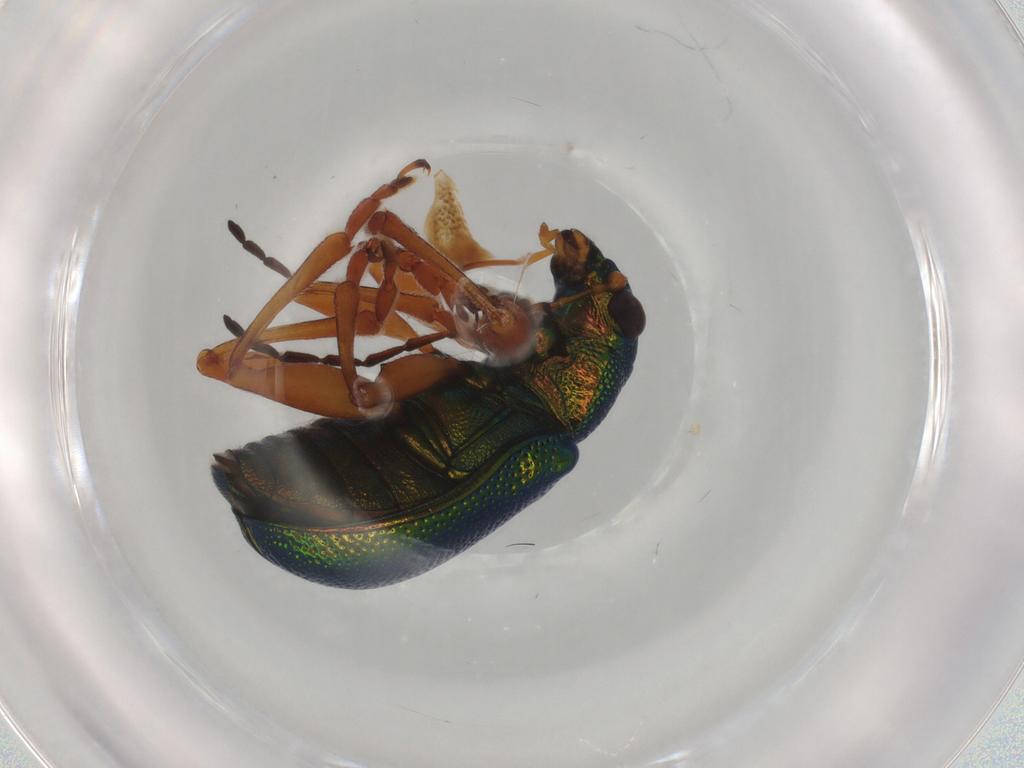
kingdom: Animalia
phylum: Arthropoda
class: Insecta
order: Coleoptera
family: Chrysomelidae
